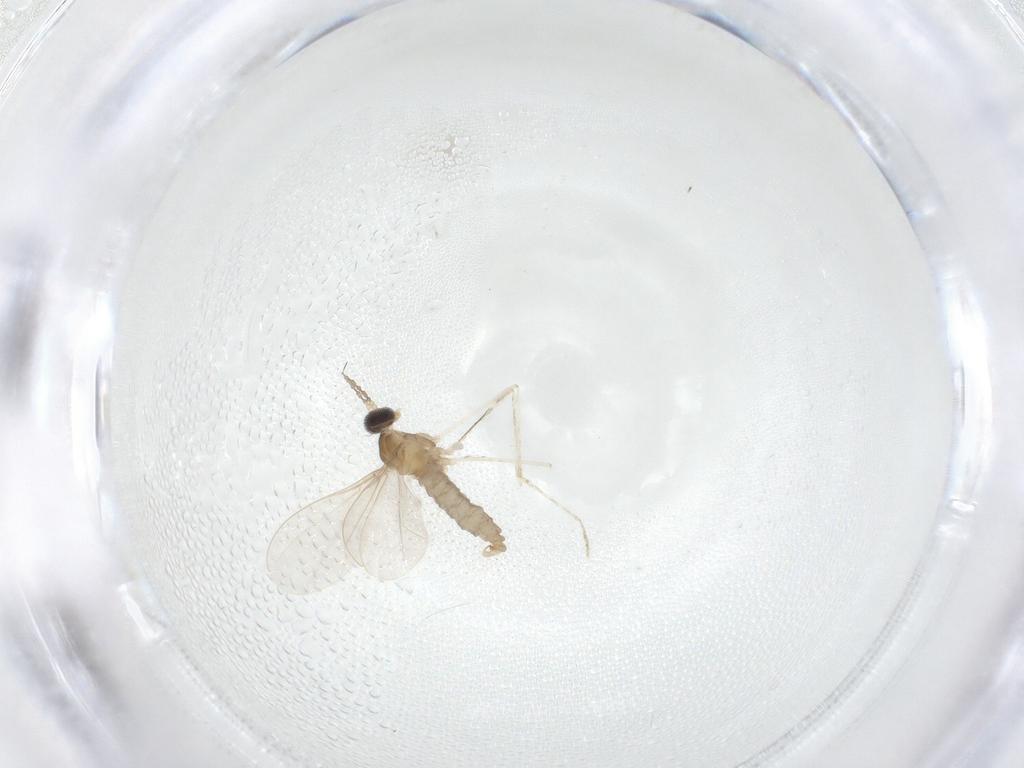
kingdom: Animalia
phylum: Arthropoda
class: Insecta
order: Diptera
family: Cecidomyiidae
